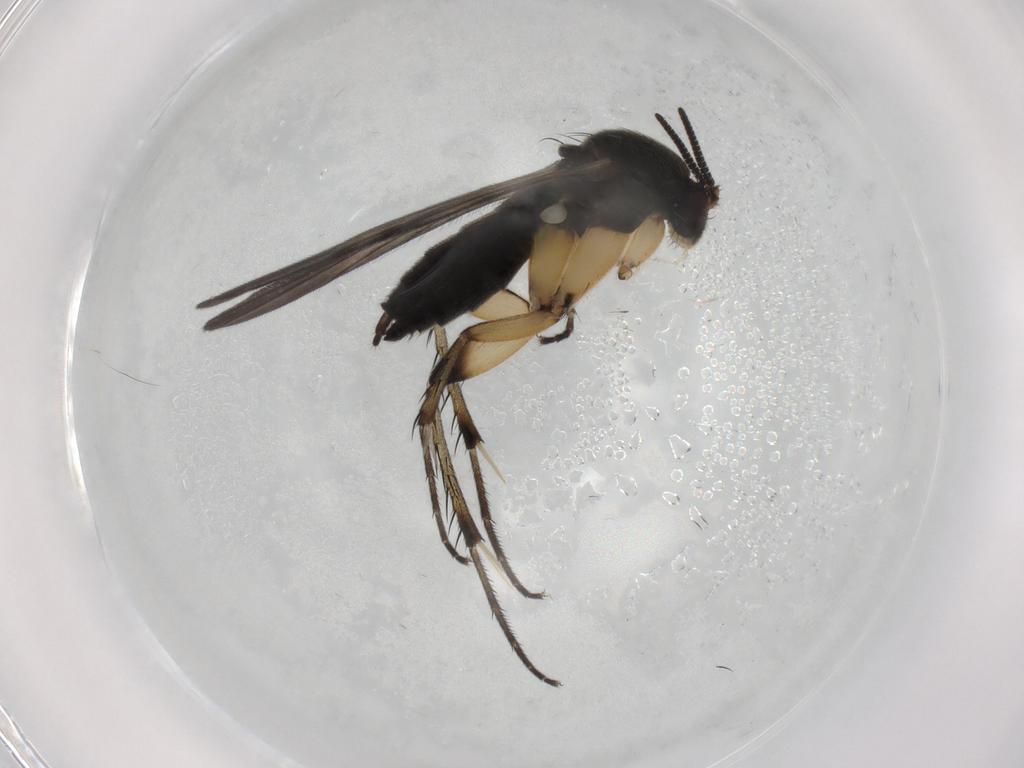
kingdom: Animalia
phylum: Arthropoda
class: Insecta
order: Diptera
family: Mycetophilidae
